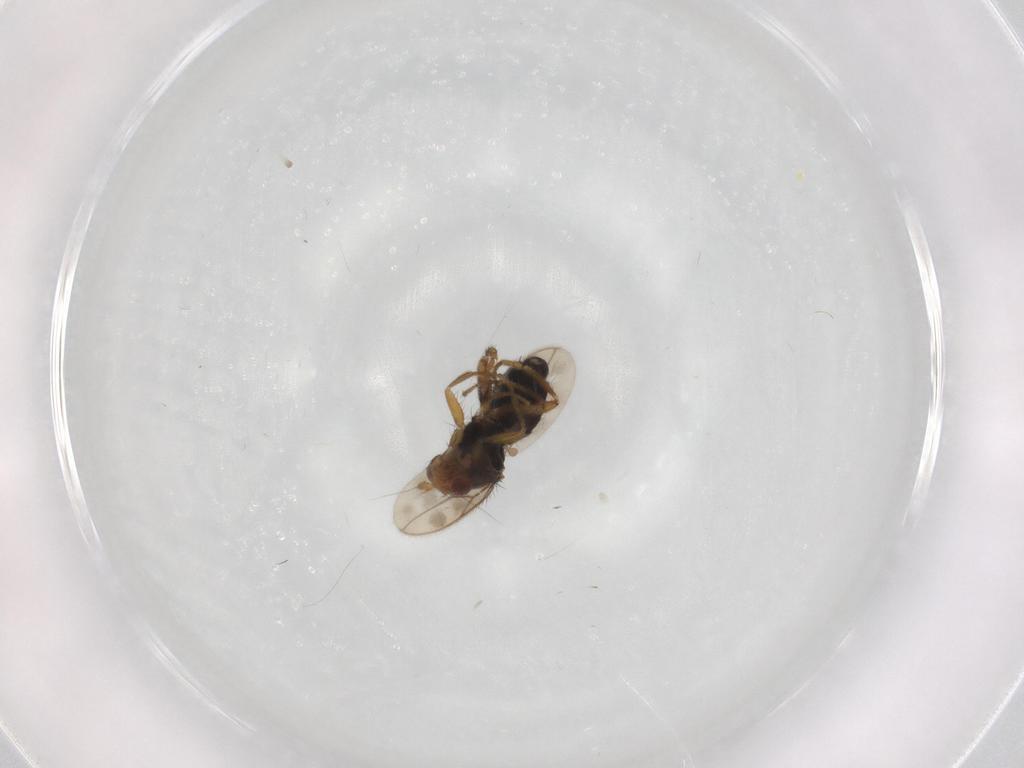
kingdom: Animalia
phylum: Arthropoda
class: Insecta
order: Diptera
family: Sphaeroceridae
